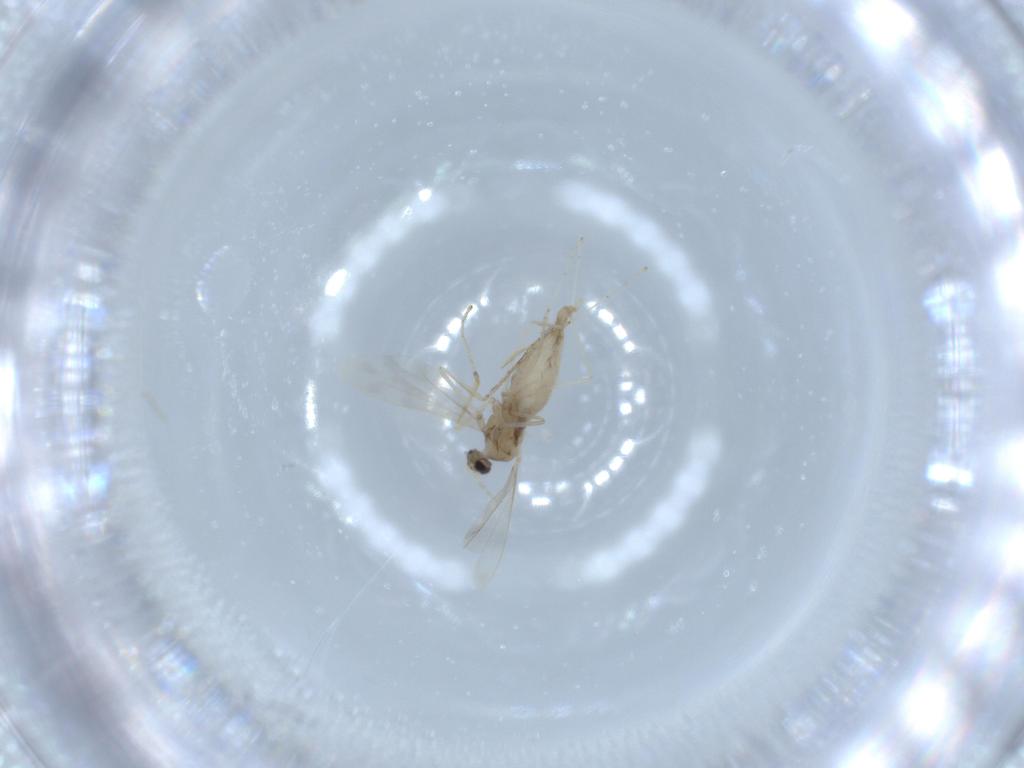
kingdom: Animalia
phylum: Arthropoda
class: Insecta
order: Diptera
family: Cecidomyiidae
